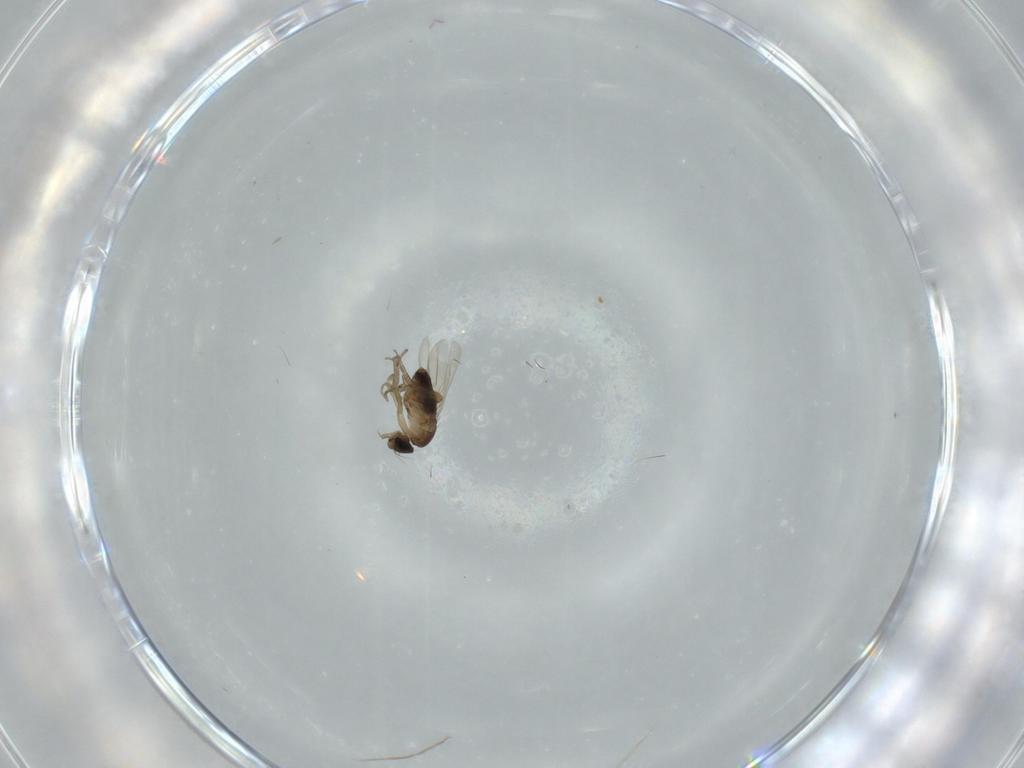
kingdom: Animalia
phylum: Arthropoda
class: Insecta
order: Diptera
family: Phoridae
